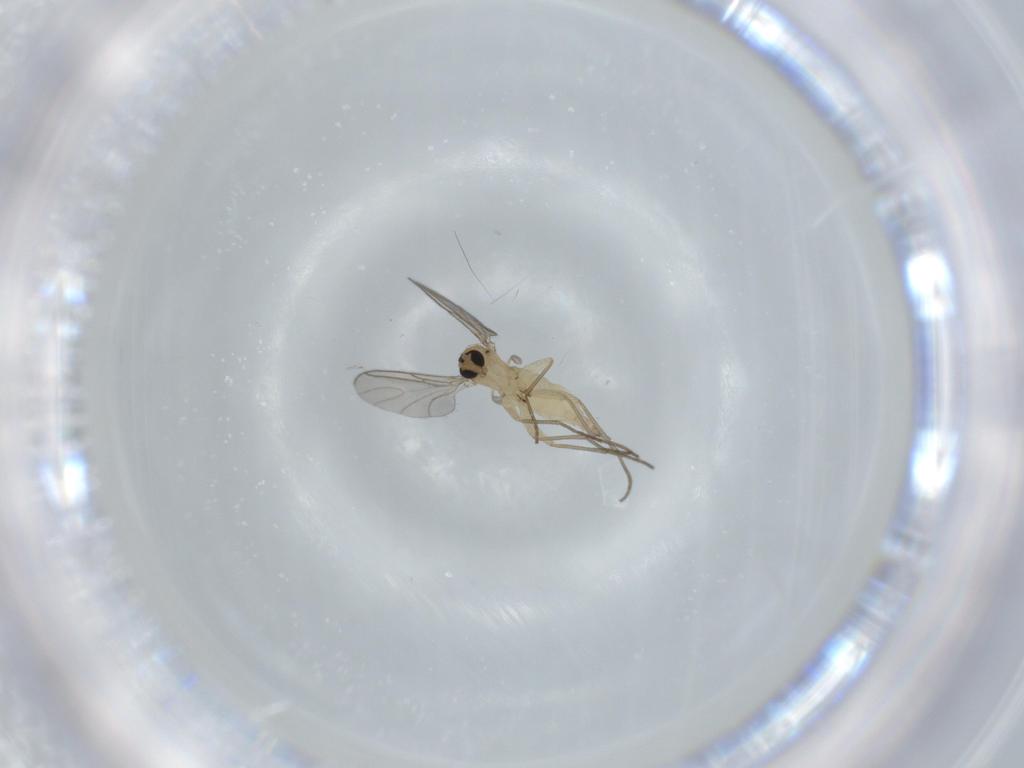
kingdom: Animalia
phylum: Arthropoda
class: Insecta
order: Diptera
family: Sciaridae
